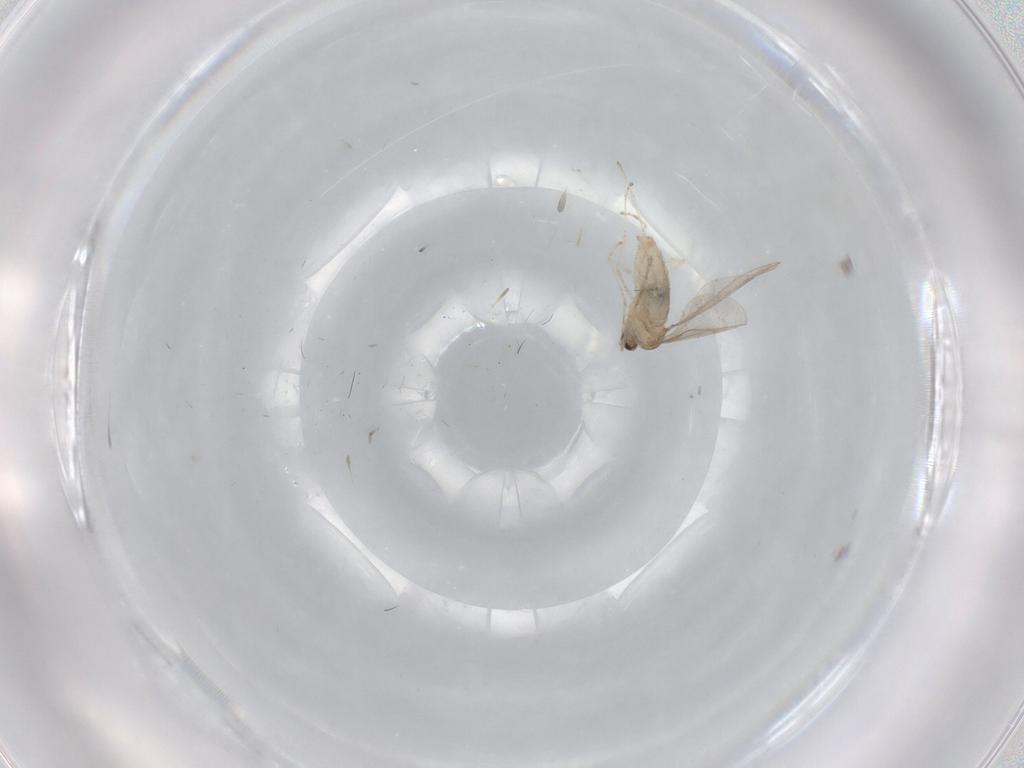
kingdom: Animalia
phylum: Arthropoda
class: Insecta
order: Diptera
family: Cecidomyiidae
